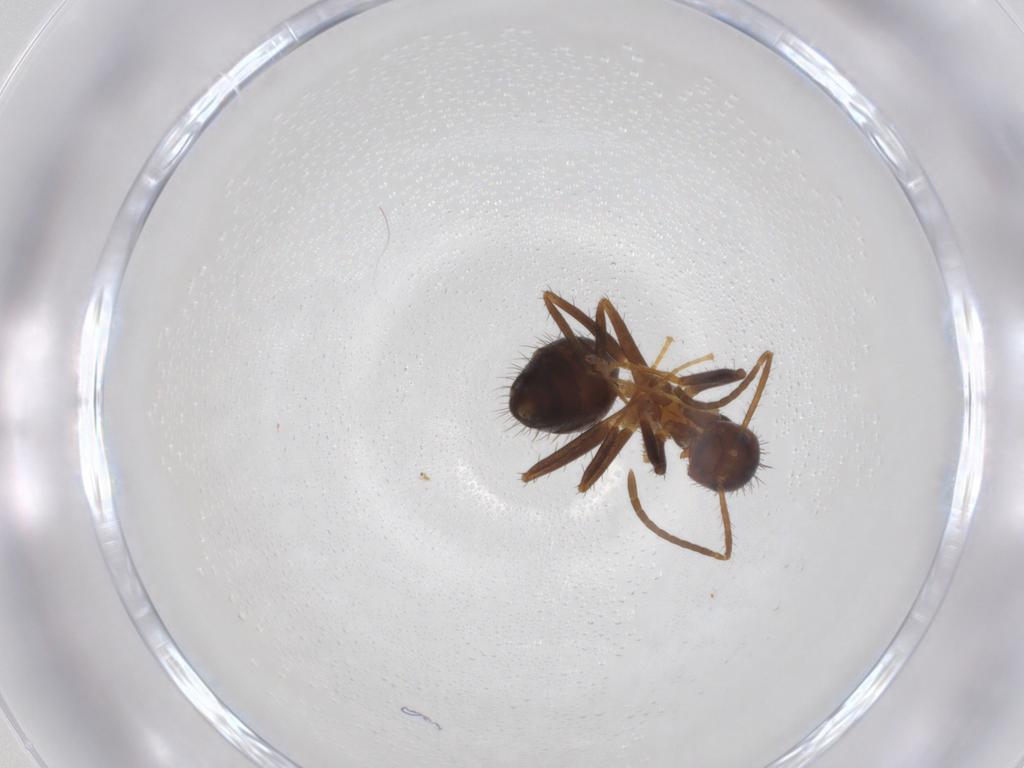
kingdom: Animalia
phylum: Arthropoda
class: Insecta
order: Hymenoptera
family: Formicidae
